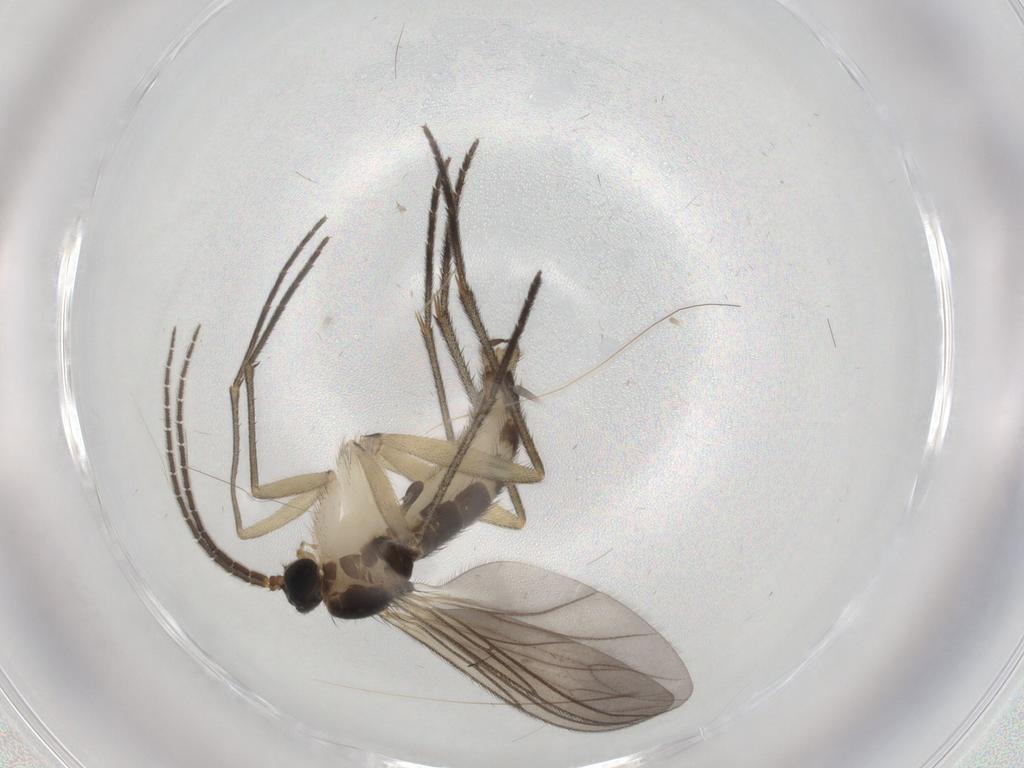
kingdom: Animalia
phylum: Arthropoda
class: Insecta
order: Diptera
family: Sciaridae
